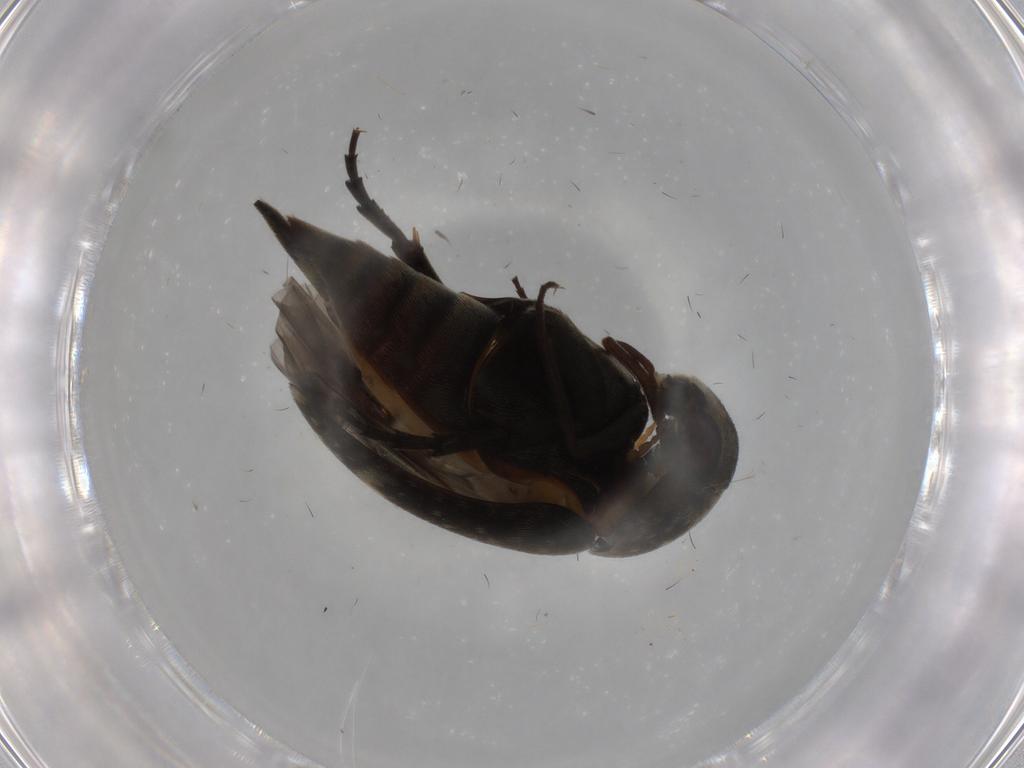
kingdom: Animalia
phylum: Arthropoda
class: Insecta
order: Coleoptera
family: Mordellidae
